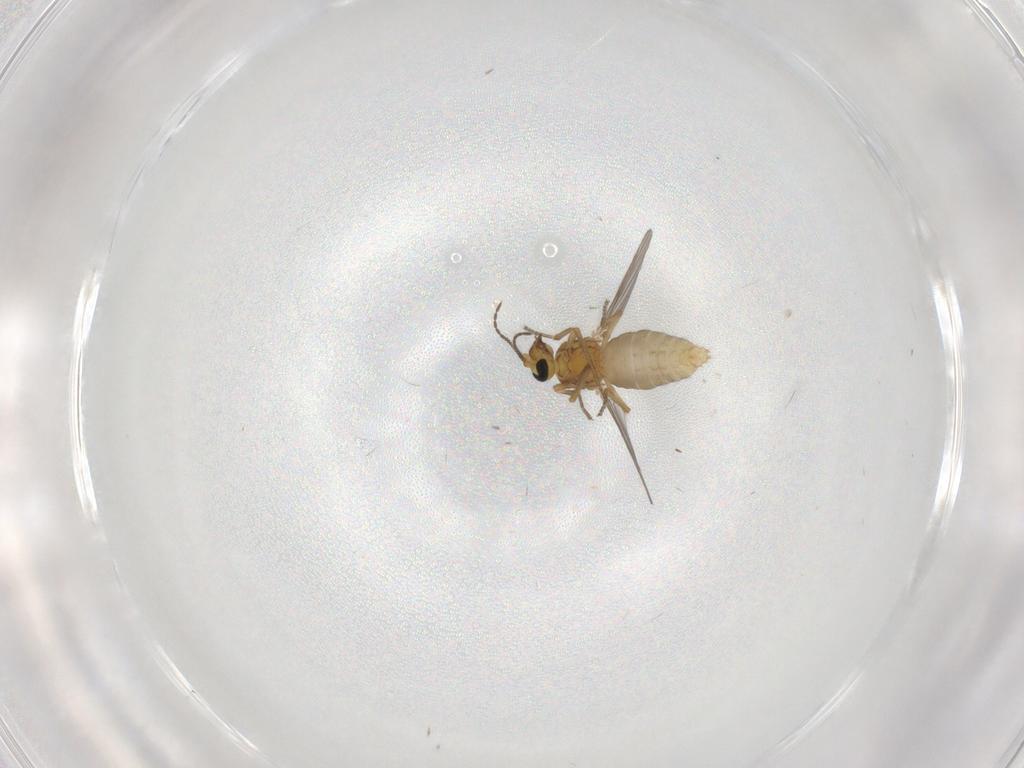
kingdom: Animalia
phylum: Arthropoda
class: Insecta
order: Diptera
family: Ceratopogonidae
